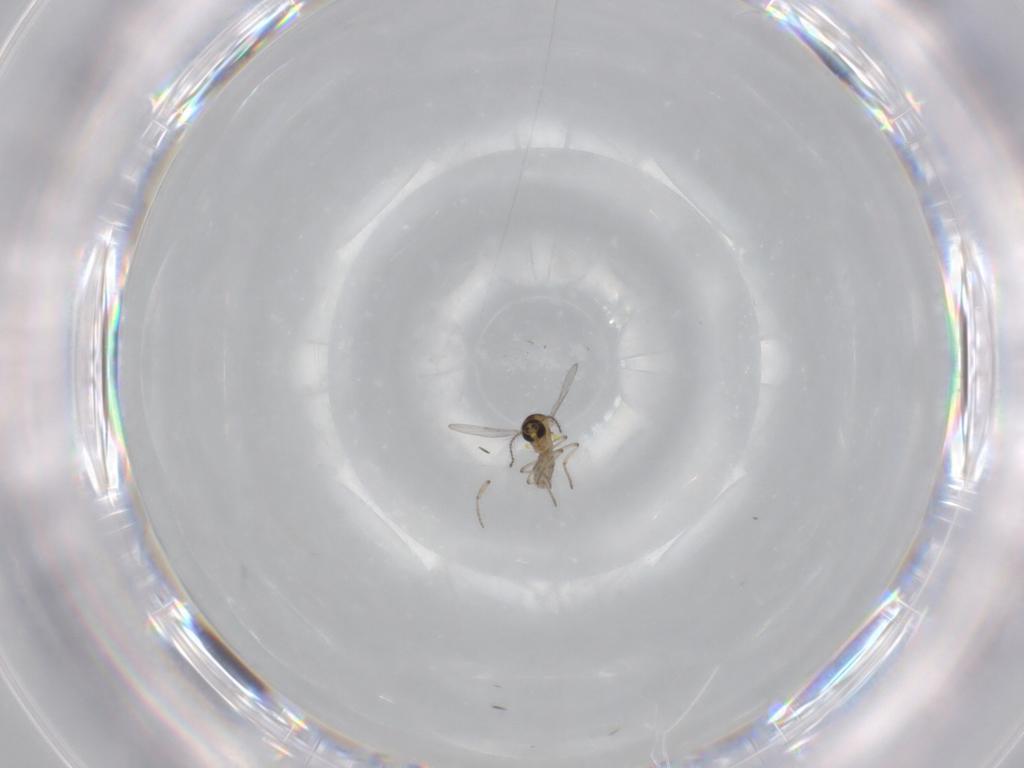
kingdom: Animalia
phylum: Arthropoda
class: Insecta
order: Diptera
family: Ceratopogonidae
